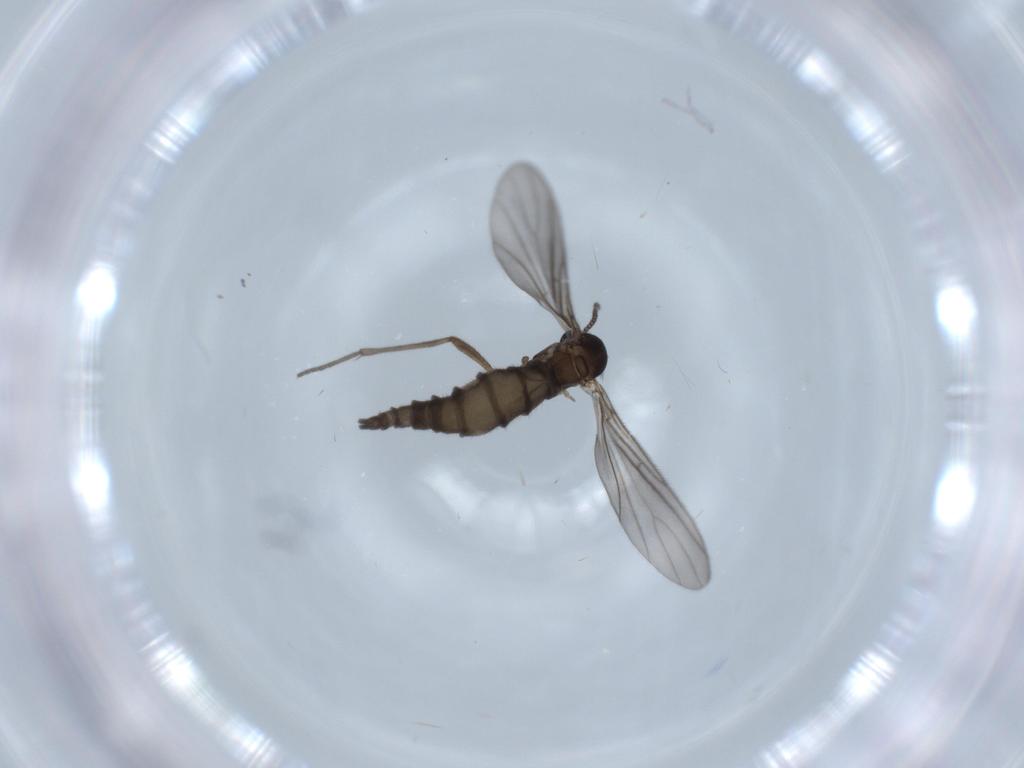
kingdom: Animalia
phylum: Arthropoda
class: Insecta
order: Diptera
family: Sciaridae
